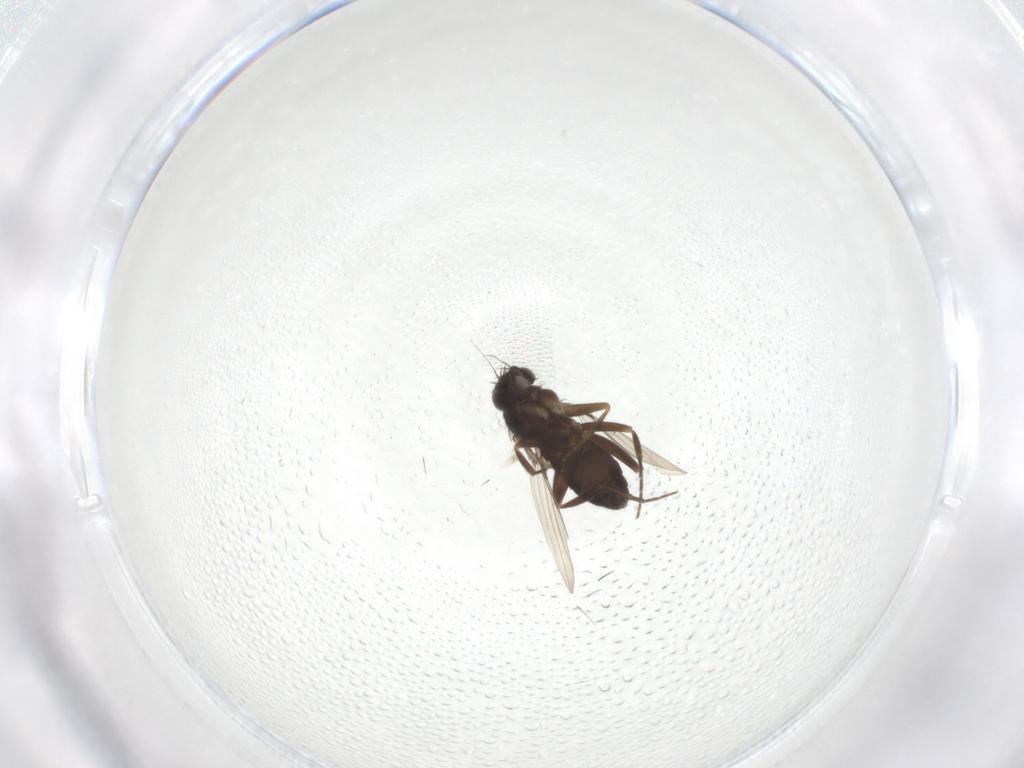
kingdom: Animalia
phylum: Arthropoda
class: Insecta
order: Diptera
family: Phoridae
